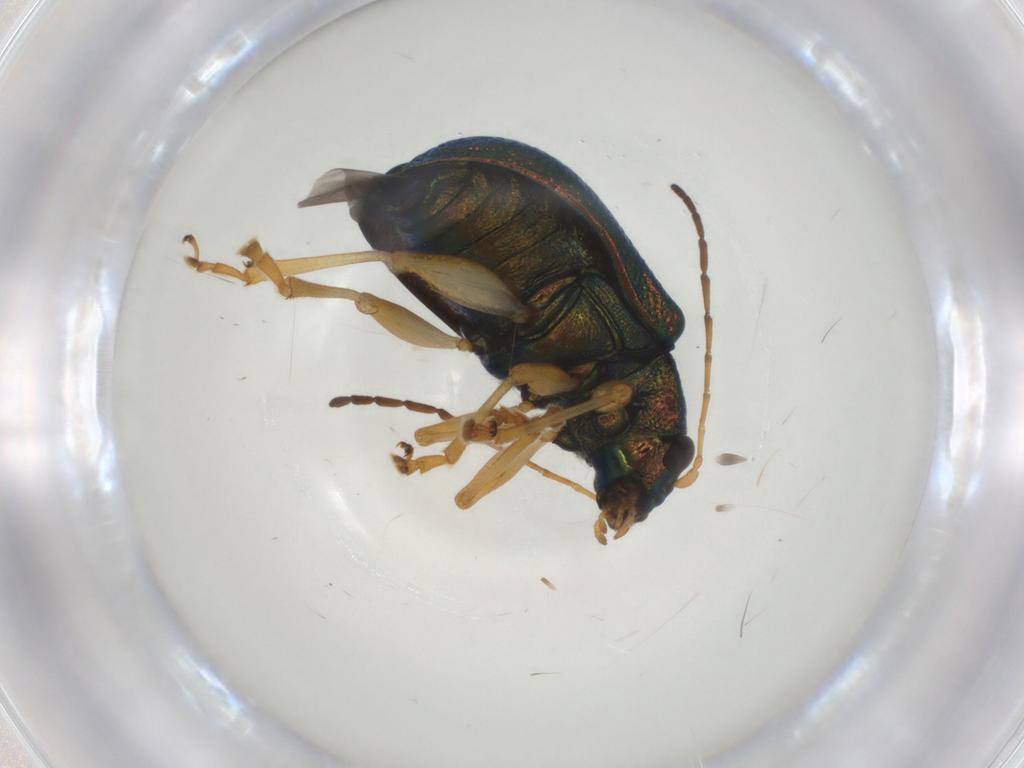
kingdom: Animalia
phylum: Arthropoda
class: Insecta
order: Coleoptera
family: Chrysomelidae
